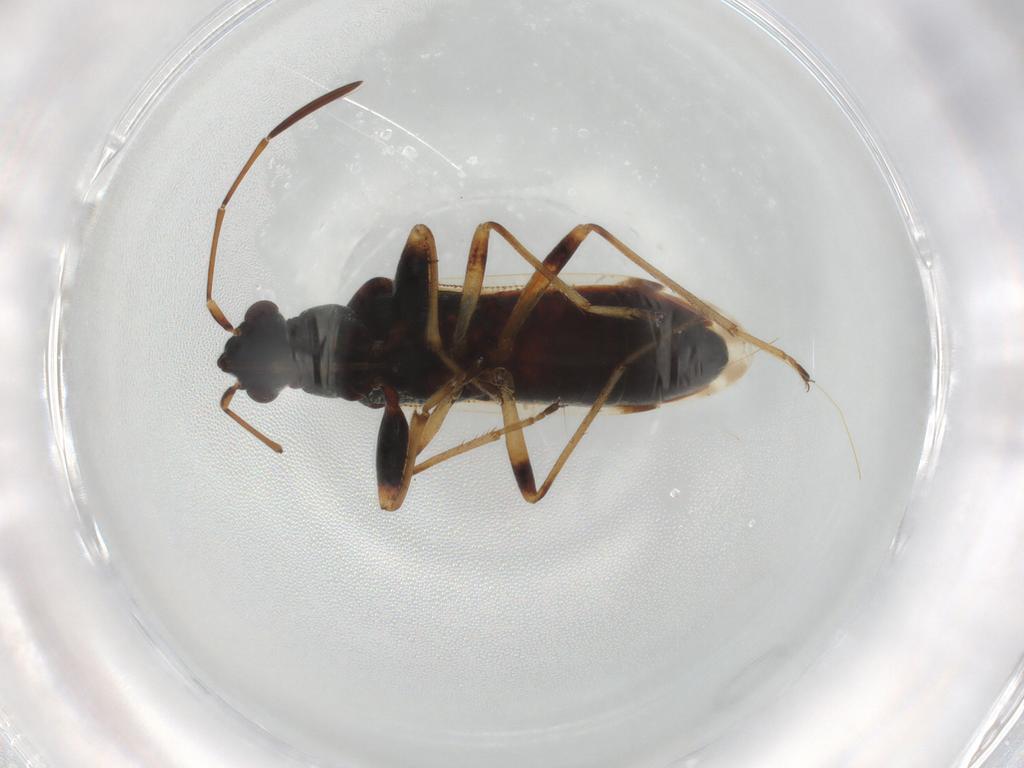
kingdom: Animalia
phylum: Arthropoda
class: Insecta
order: Hemiptera
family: Rhyparochromidae
